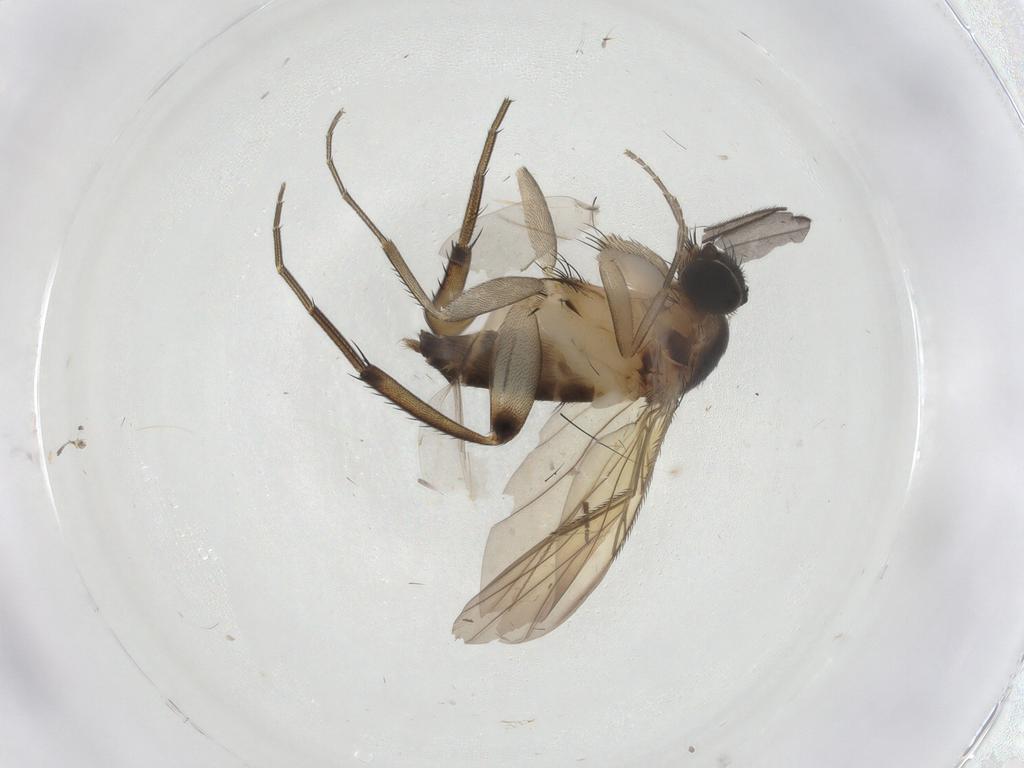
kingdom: Animalia
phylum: Arthropoda
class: Insecta
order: Diptera
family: Phoridae
